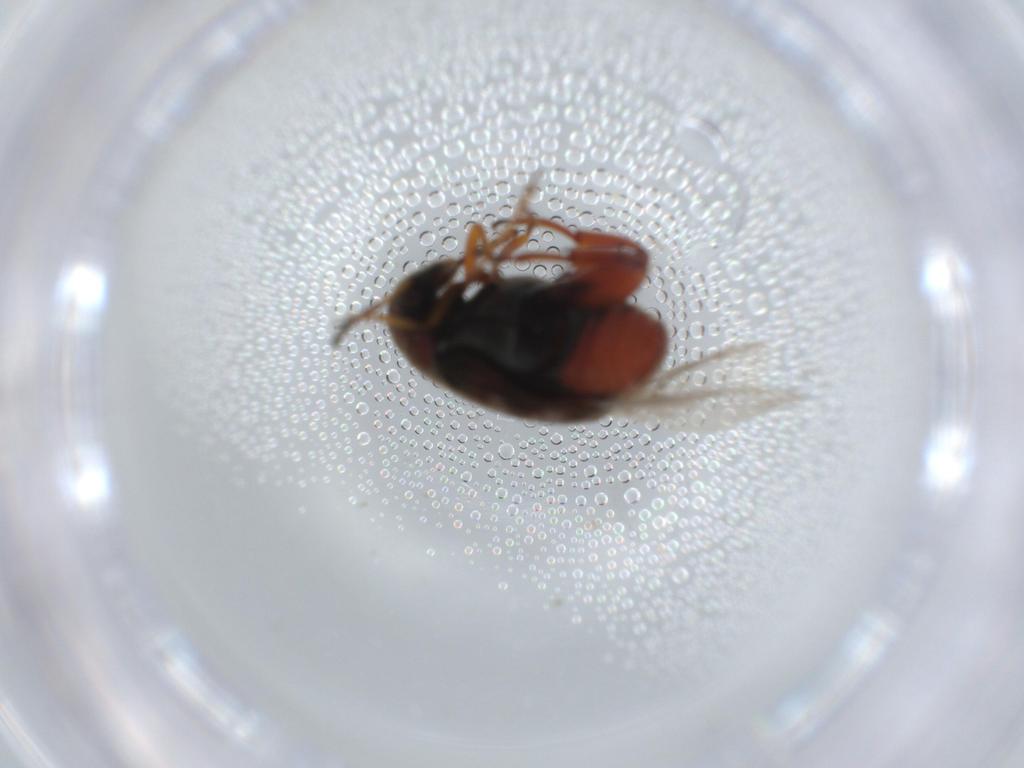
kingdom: Animalia
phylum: Arthropoda
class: Insecta
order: Coleoptera
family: Chrysomelidae
